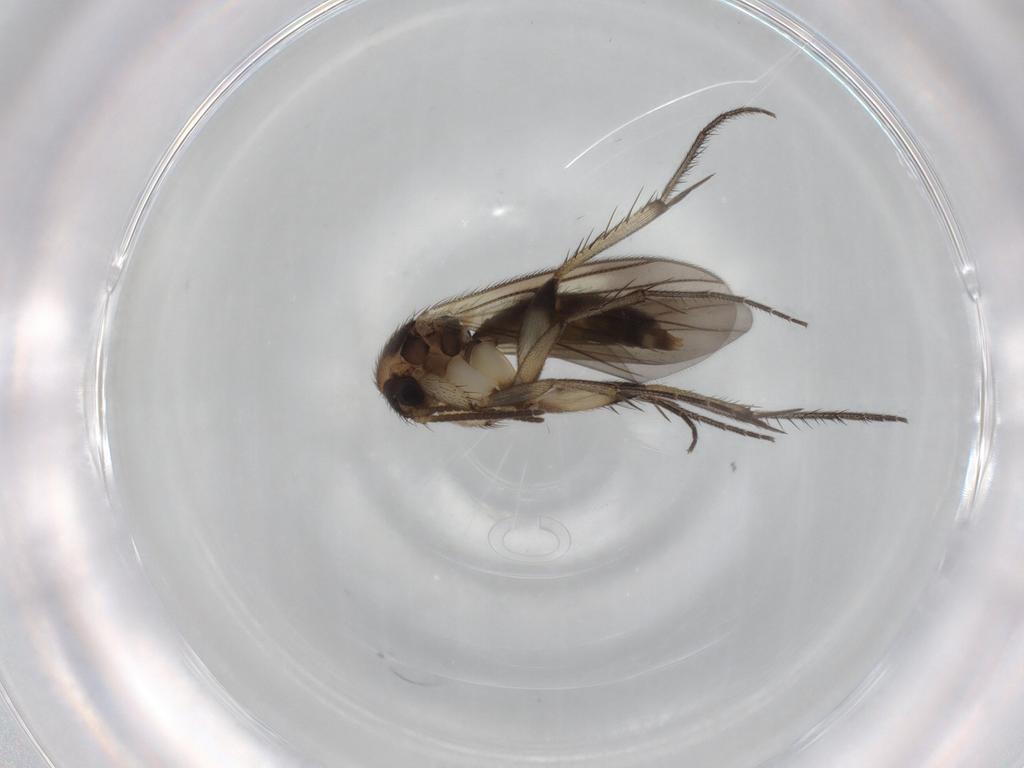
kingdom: Animalia
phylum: Arthropoda
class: Insecta
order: Diptera
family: Mycetophilidae
